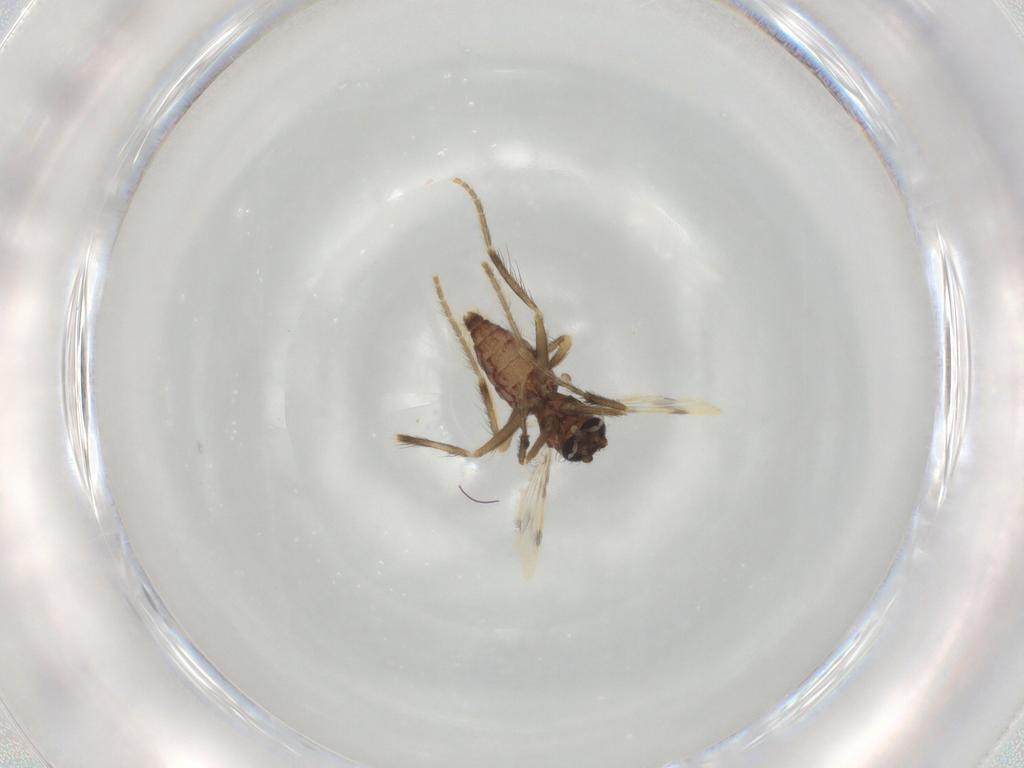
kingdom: Animalia
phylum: Arthropoda
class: Insecta
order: Diptera
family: Corethrellidae
